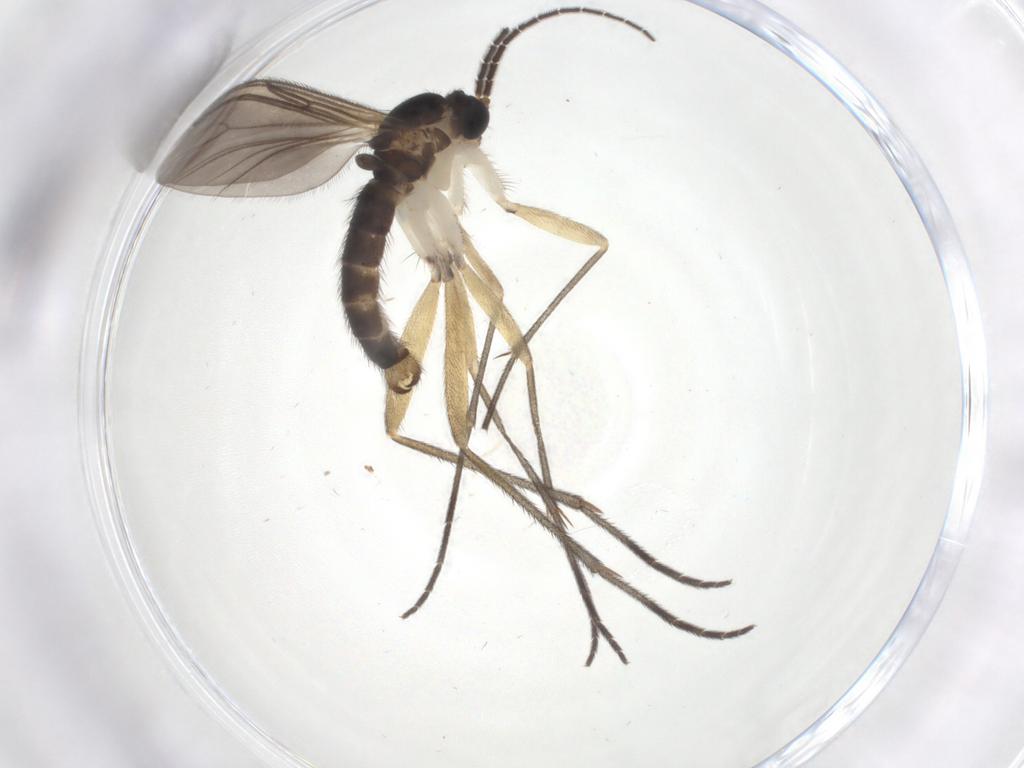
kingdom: Animalia
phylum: Arthropoda
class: Insecta
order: Diptera
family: Sciaridae
